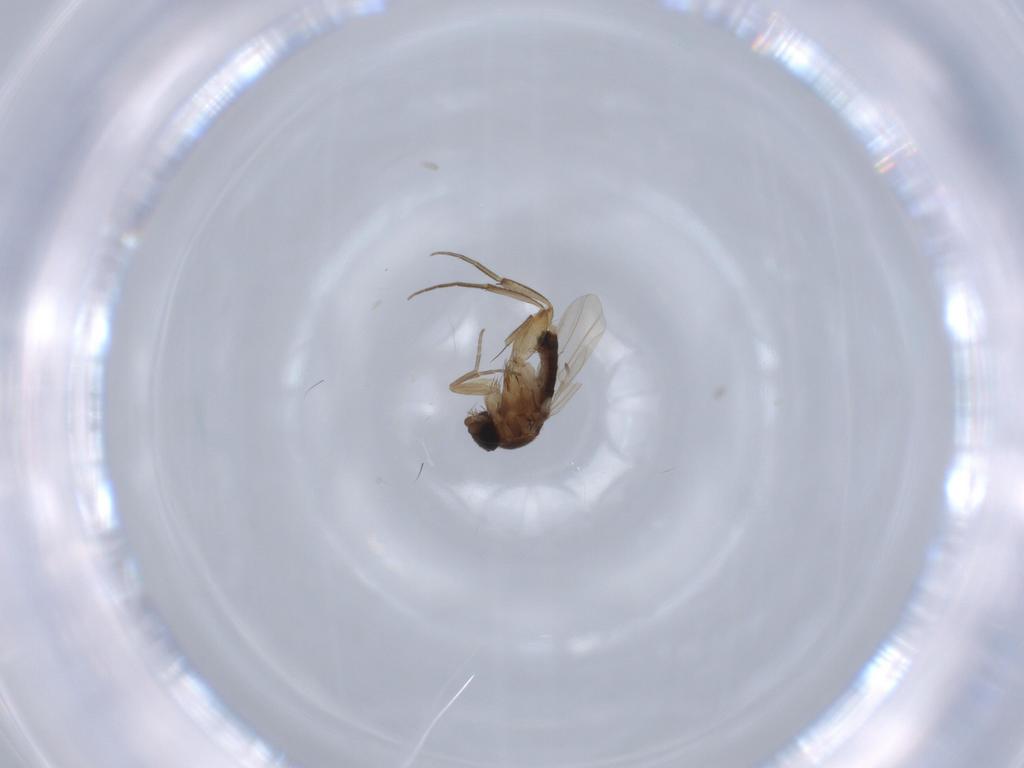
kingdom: Animalia
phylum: Arthropoda
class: Insecta
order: Diptera
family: Phoridae
